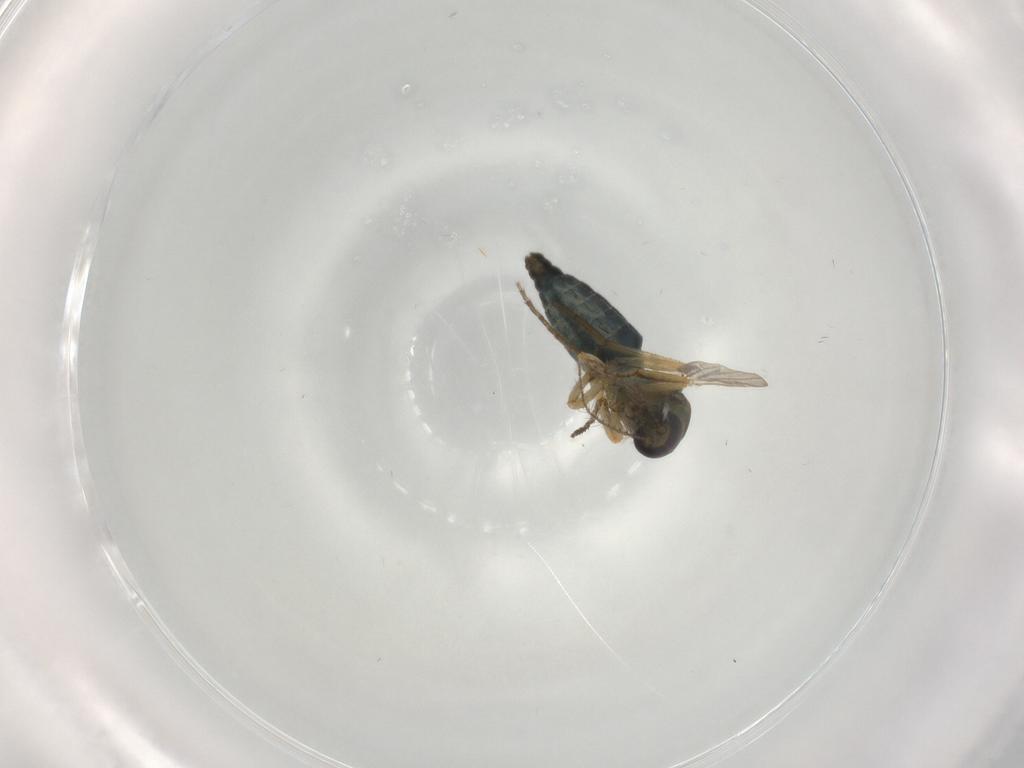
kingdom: Animalia
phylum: Arthropoda
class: Insecta
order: Diptera
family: Ceratopogonidae
